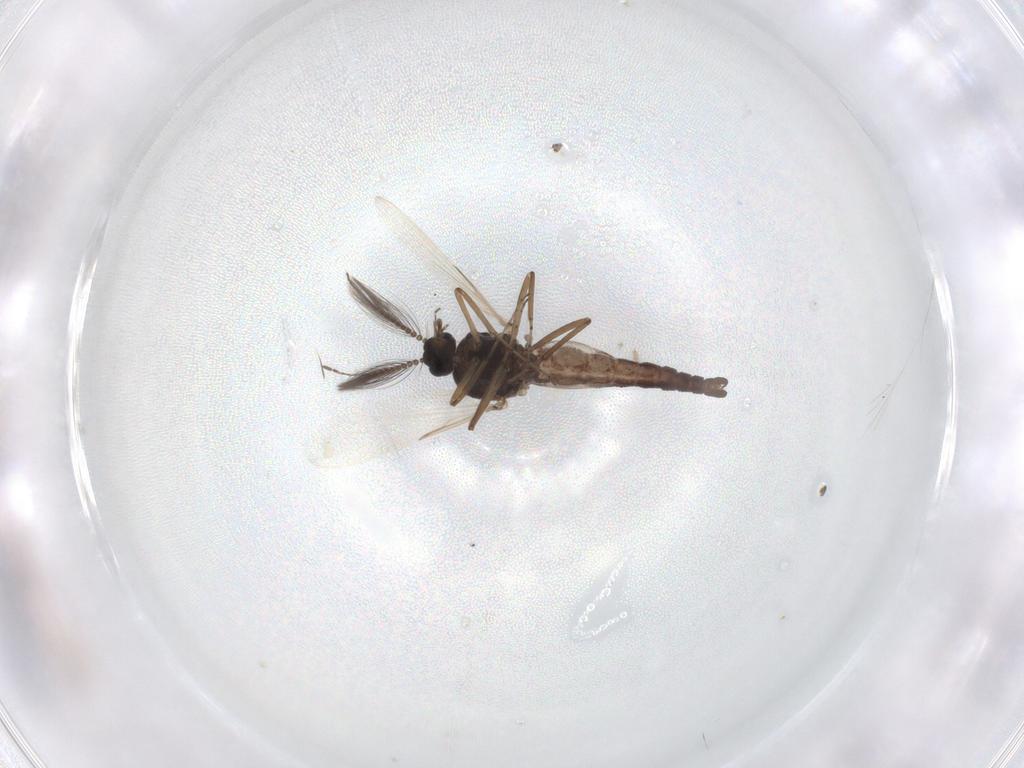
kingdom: Animalia
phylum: Arthropoda
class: Insecta
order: Diptera
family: Ceratopogonidae
